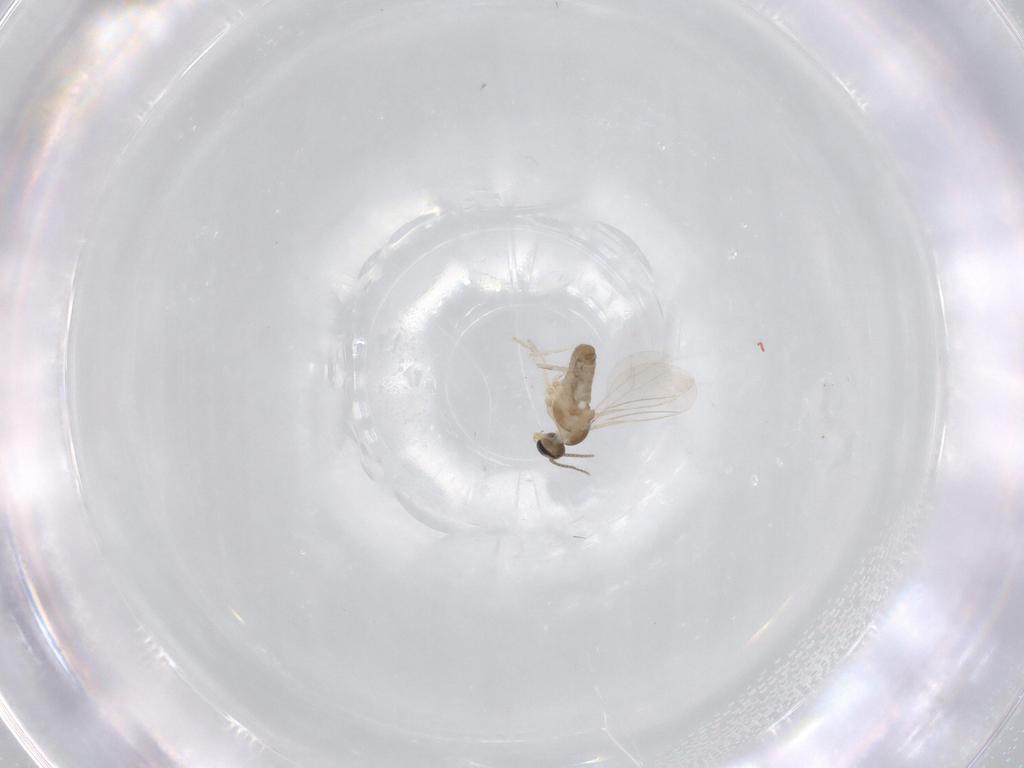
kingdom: Animalia
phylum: Arthropoda
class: Insecta
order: Diptera
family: Cecidomyiidae
